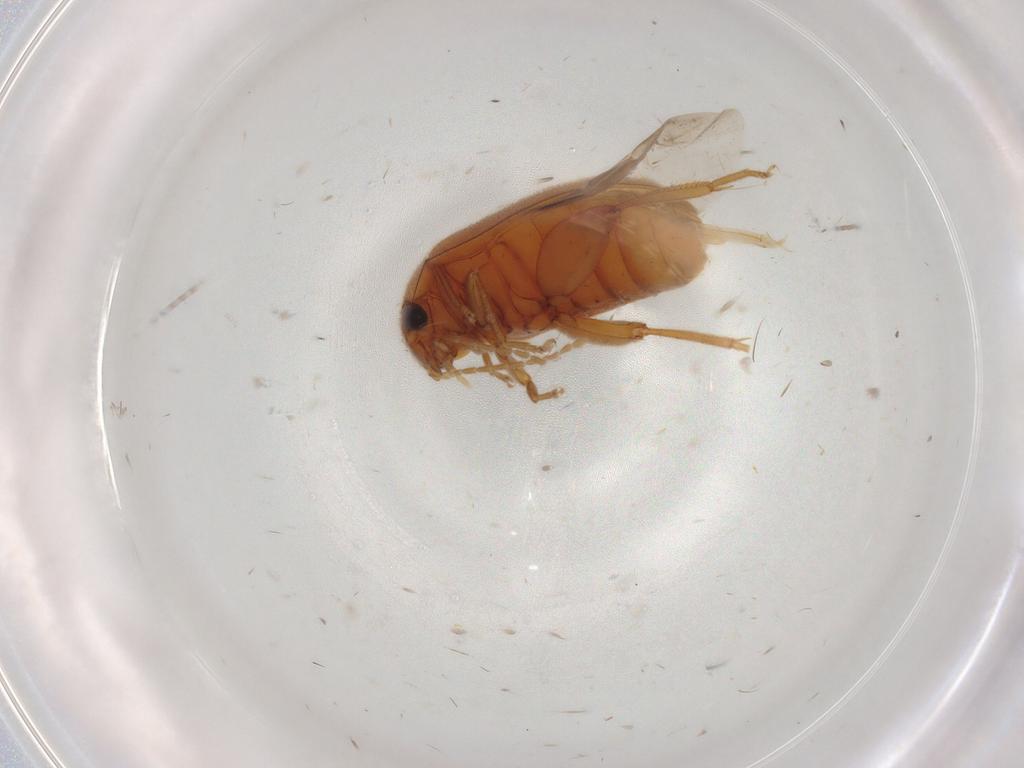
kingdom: Animalia
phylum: Arthropoda
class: Insecta
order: Coleoptera
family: Scirtidae
